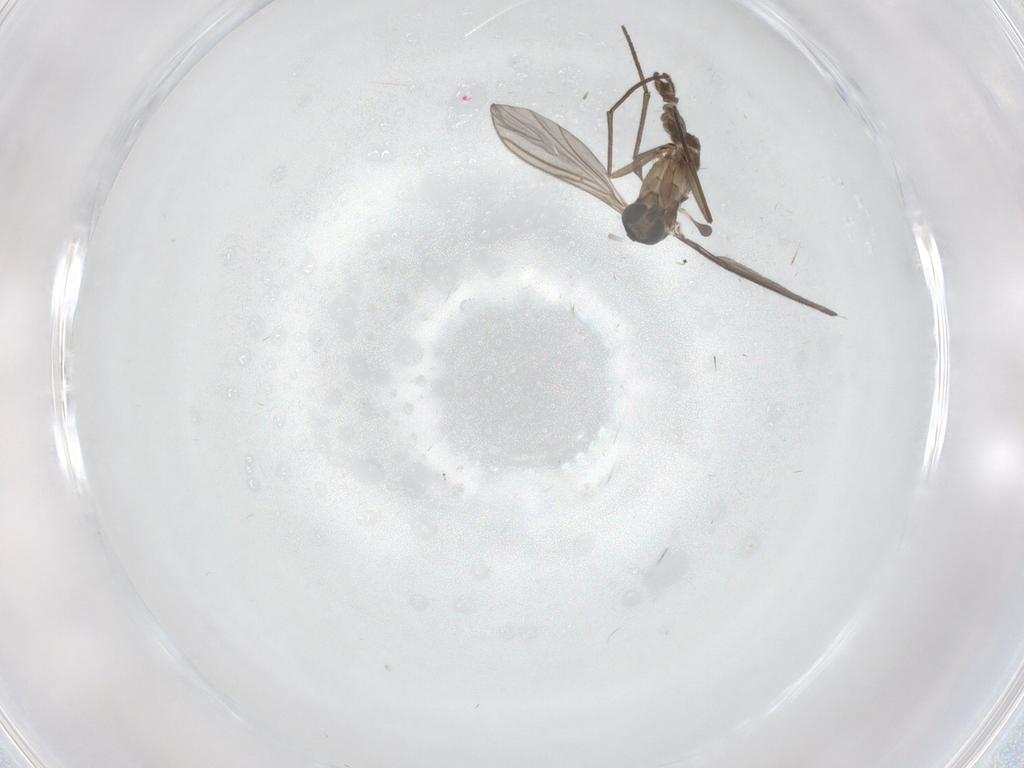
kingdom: Animalia
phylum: Arthropoda
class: Insecta
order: Diptera
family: Sciaridae
